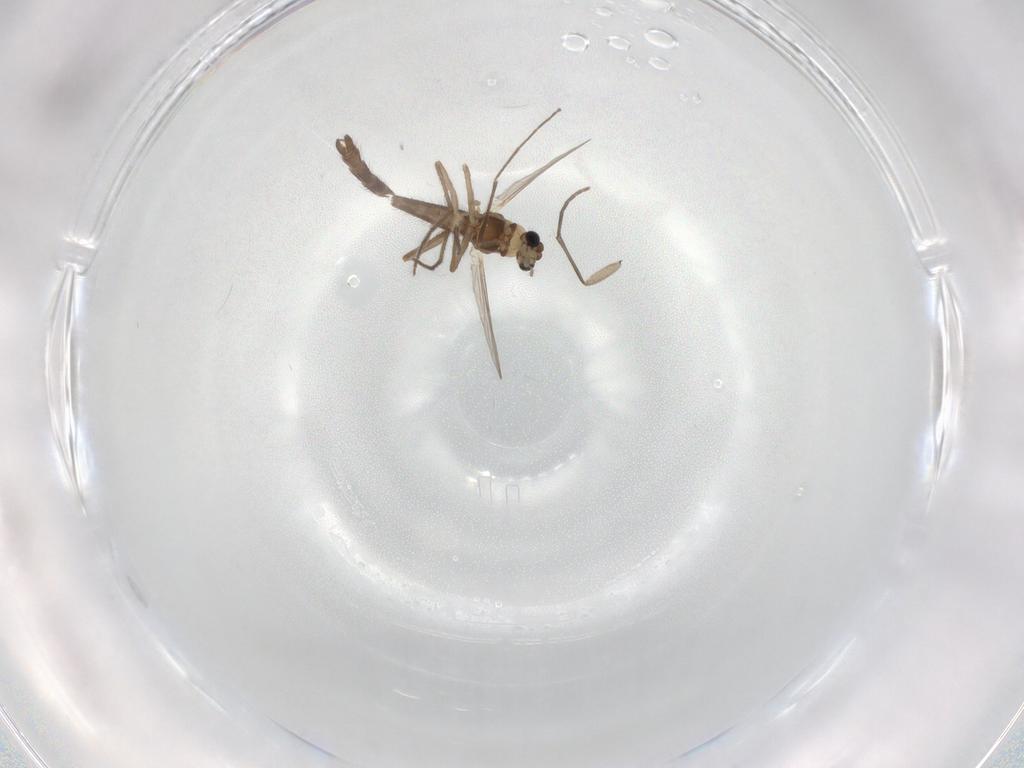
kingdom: Animalia
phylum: Arthropoda
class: Insecta
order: Diptera
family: Chironomidae
